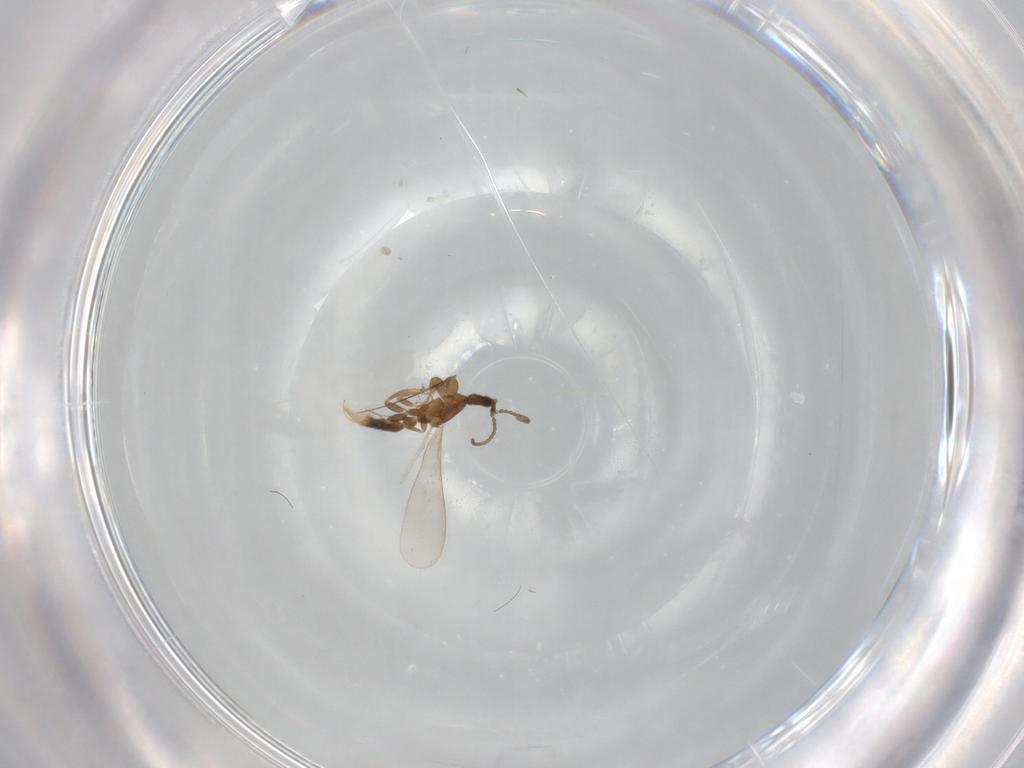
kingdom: Animalia
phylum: Arthropoda
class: Insecta
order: Hymenoptera
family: Formicidae
